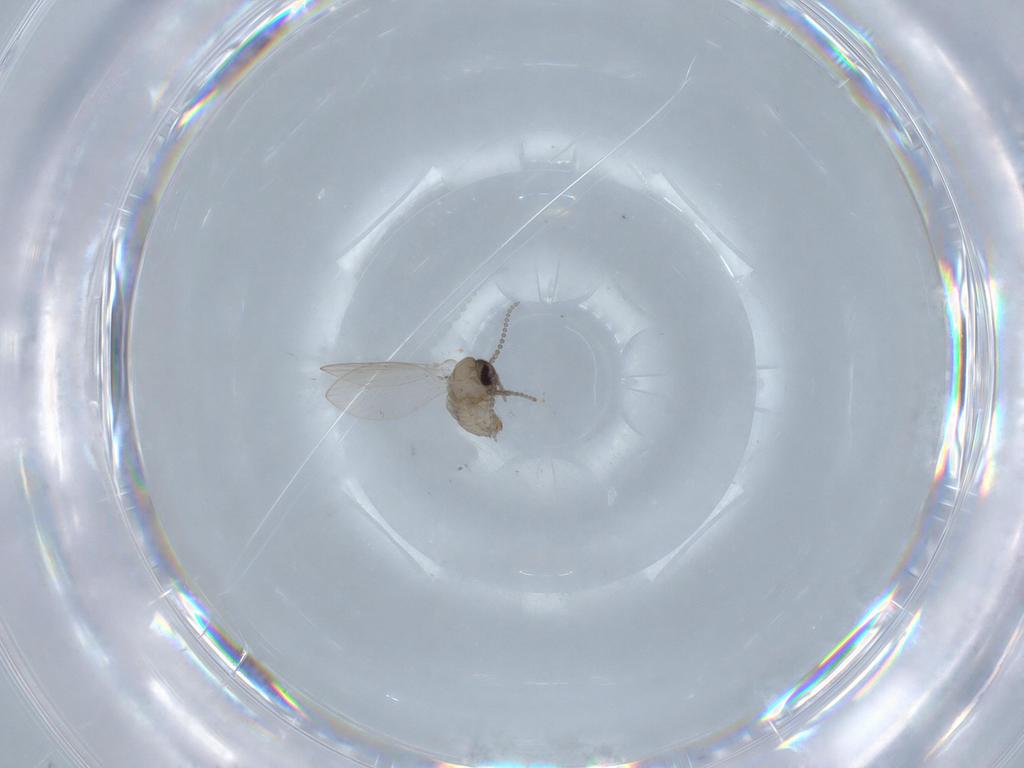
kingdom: Animalia
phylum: Arthropoda
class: Insecta
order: Diptera
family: Psychodidae
